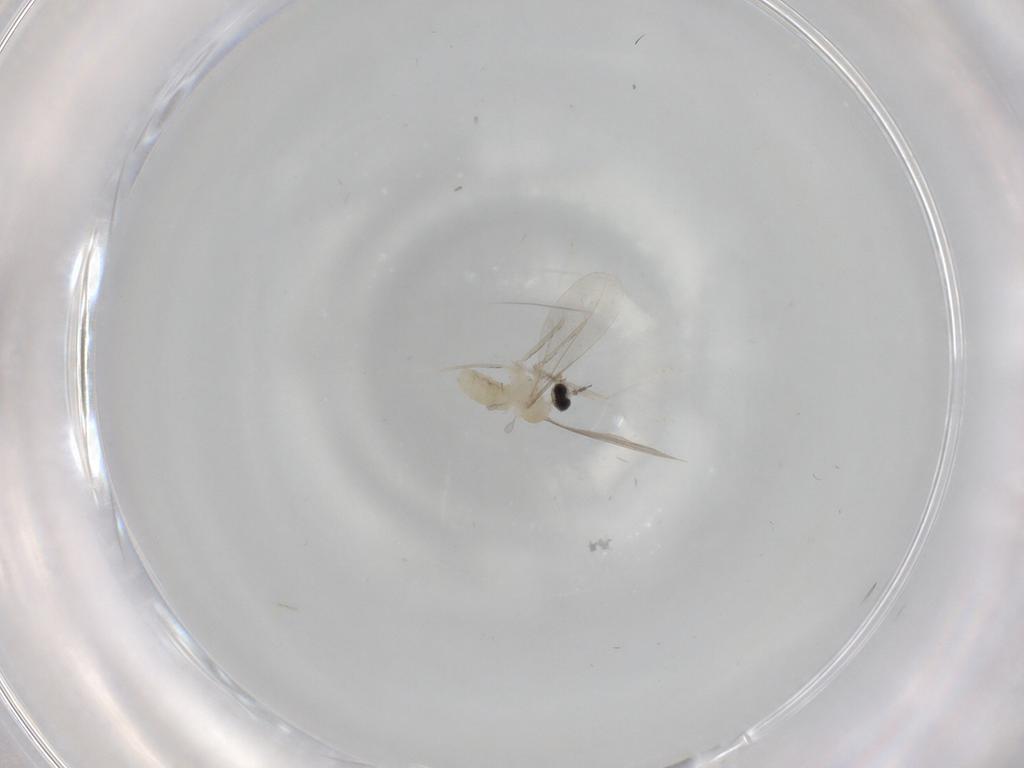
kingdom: Animalia
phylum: Arthropoda
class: Insecta
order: Diptera
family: Cecidomyiidae
